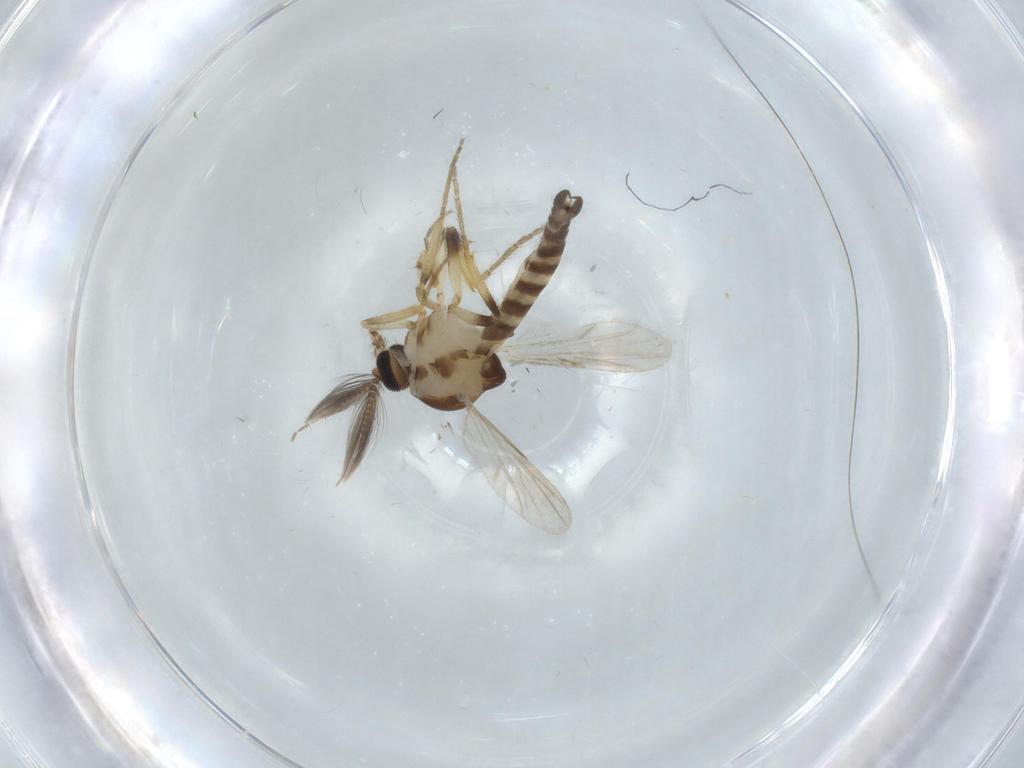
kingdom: Animalia
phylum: Arthropoda
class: Insecta
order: Diptera
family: Ceratopogonidae
